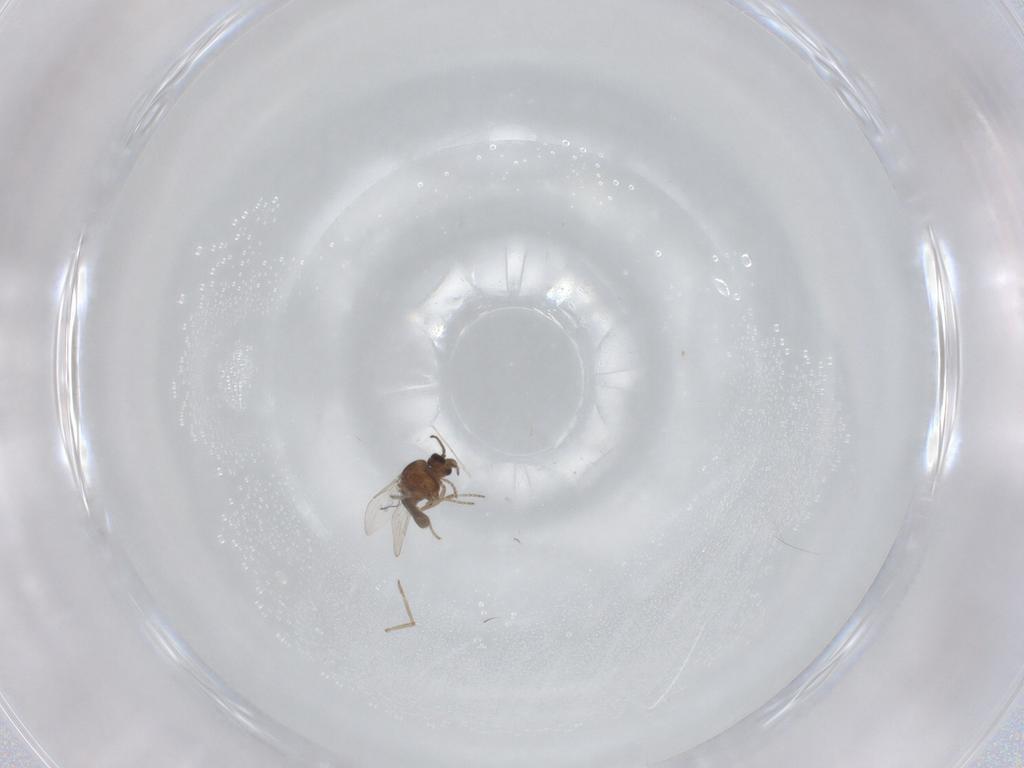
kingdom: Animalia
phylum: Arthropoda
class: Insecta
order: Diptera
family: Ceratopogonidae
